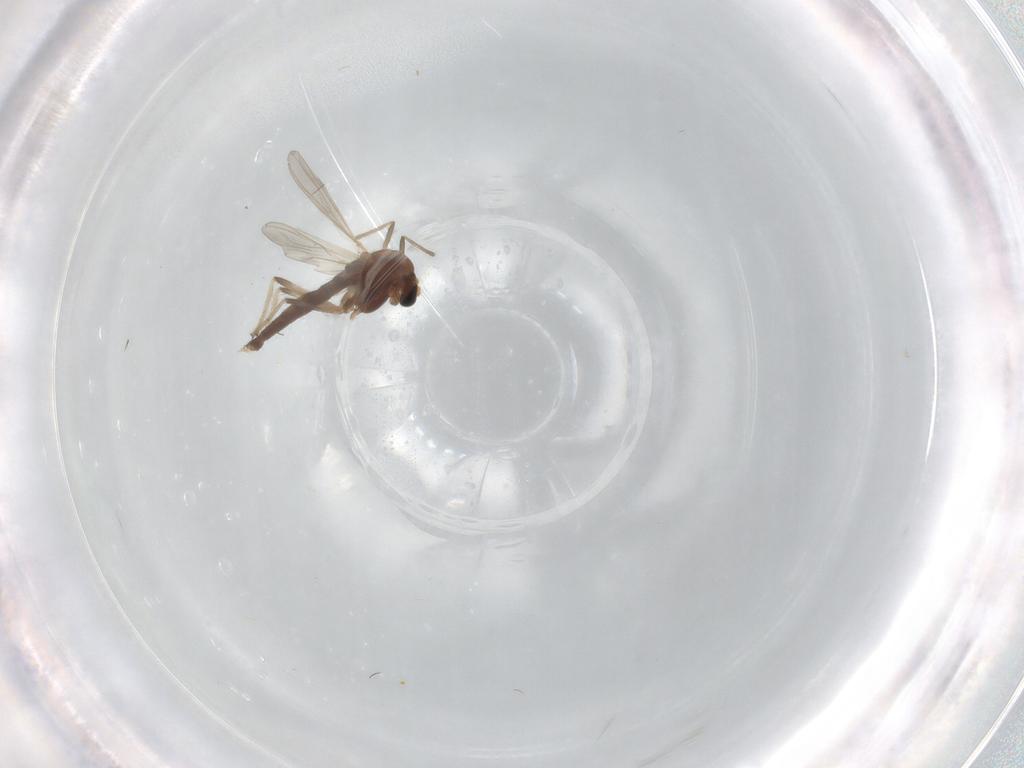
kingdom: Animalia
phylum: Arthropoda
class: Insecta
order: Diptera
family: Chironomidae
